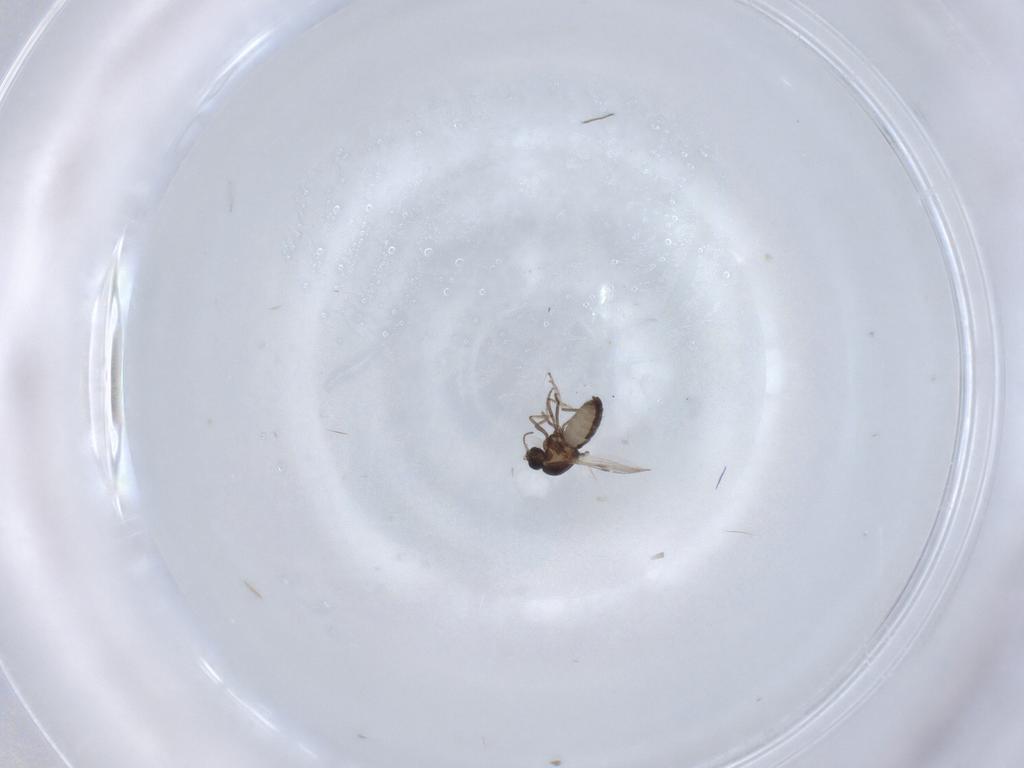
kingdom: Animalia
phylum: Arthropoda
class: Insecta
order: Diptera
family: Ceratopogonidae
